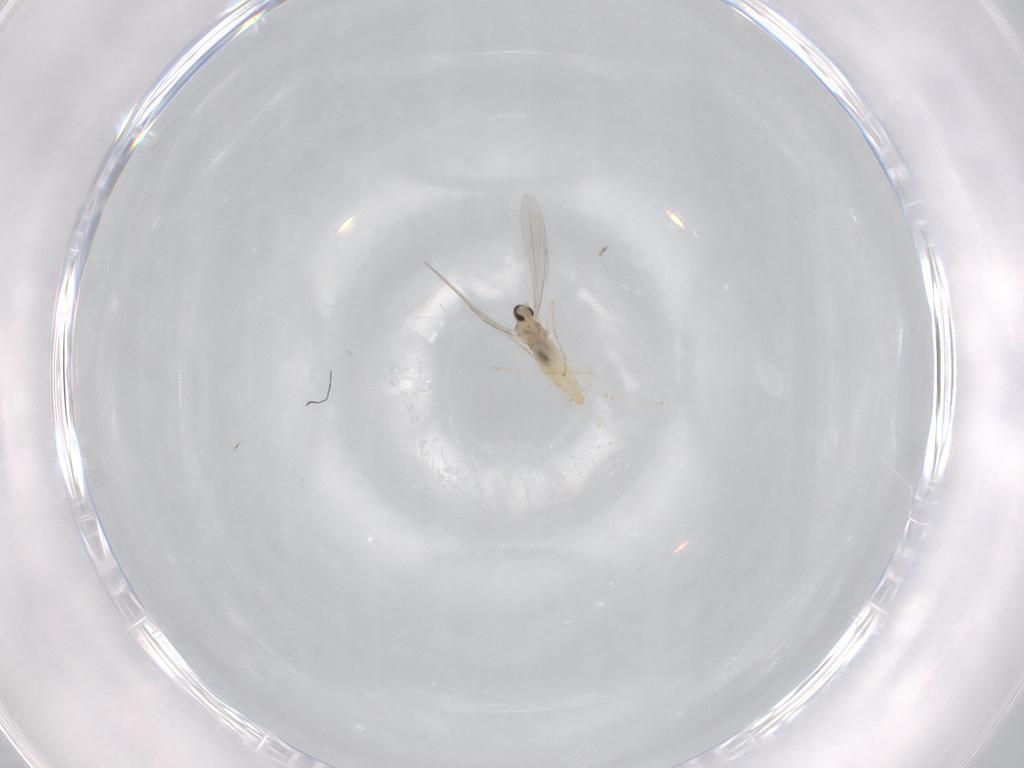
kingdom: Animalia
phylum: Arthropoda
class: Insecta
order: Diptera
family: Cecidomyiidae
